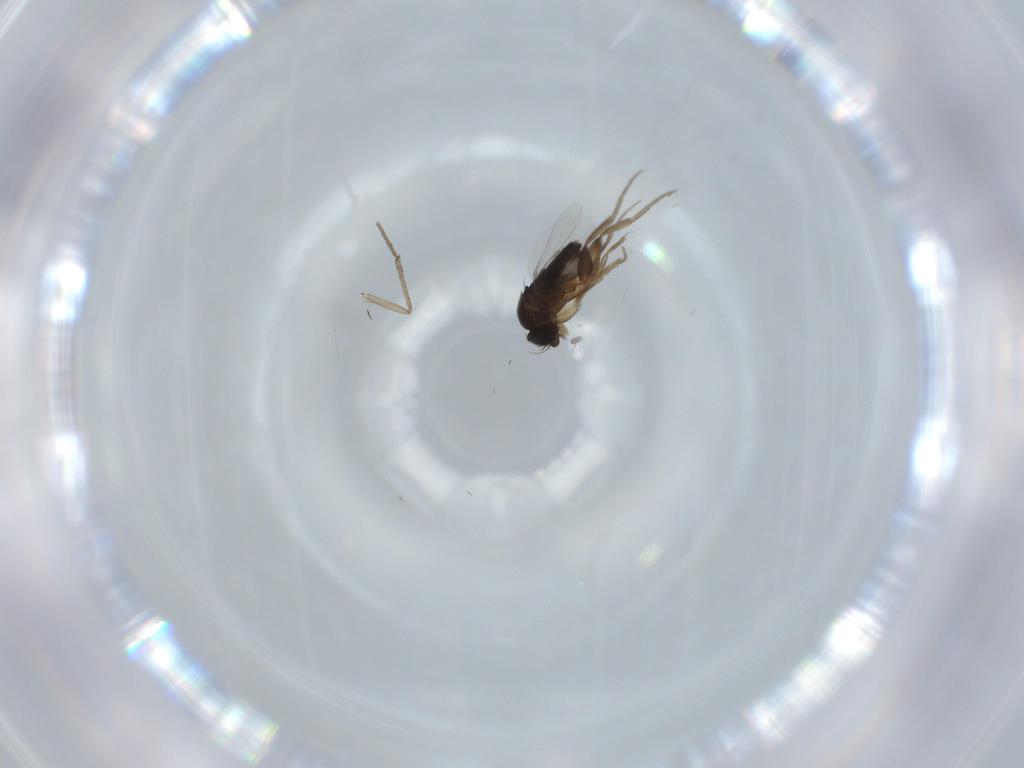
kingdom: Animalia
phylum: Arthropoda
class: Insecta
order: Diptera
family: Phoridae
